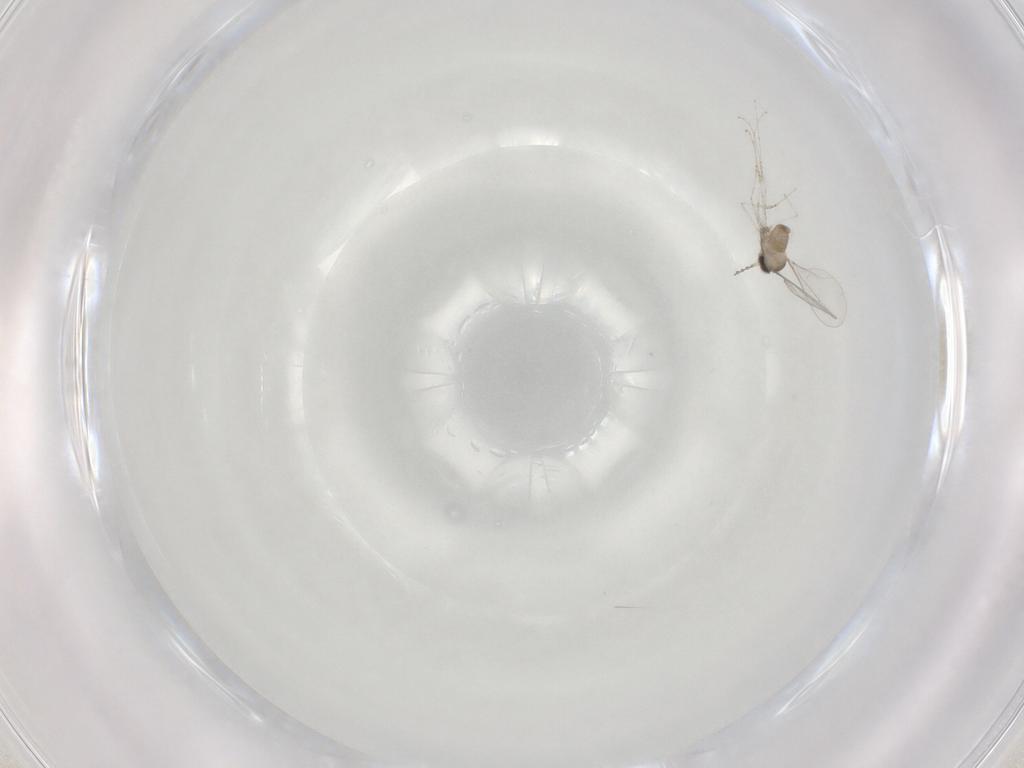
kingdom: Animalia
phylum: Arthropoda
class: Insecta
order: Diptera
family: Cecidomyiidae
